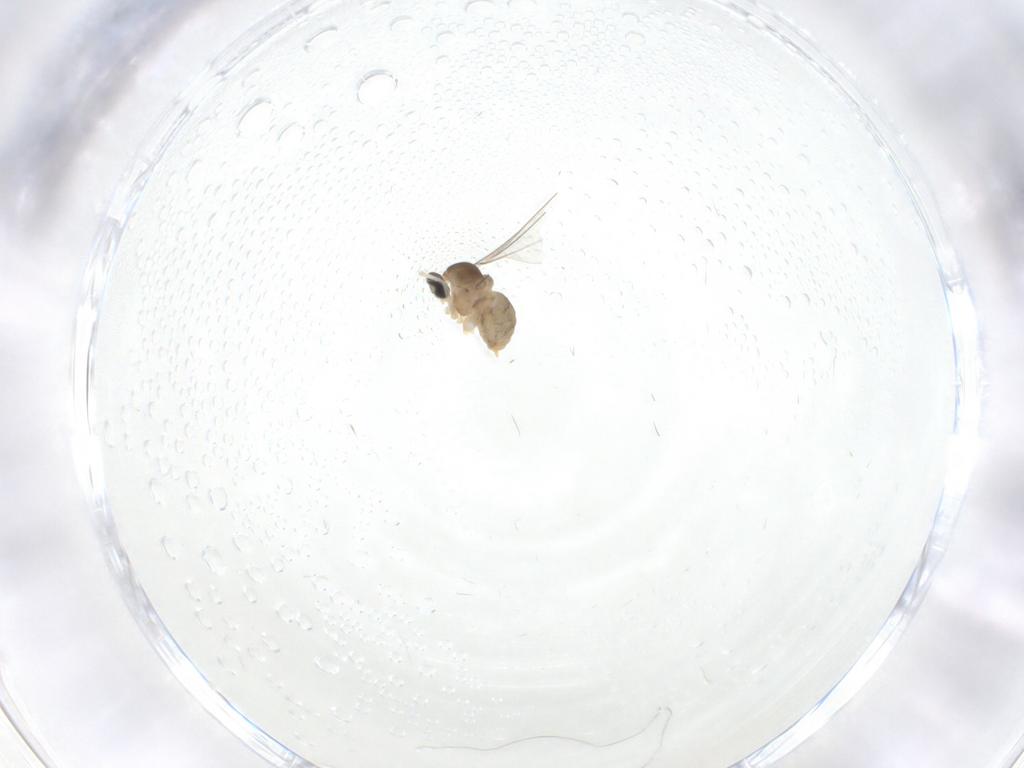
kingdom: Animalia
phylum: Arthropoda
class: Insecta
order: Diptera
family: Cecidomyiidae
